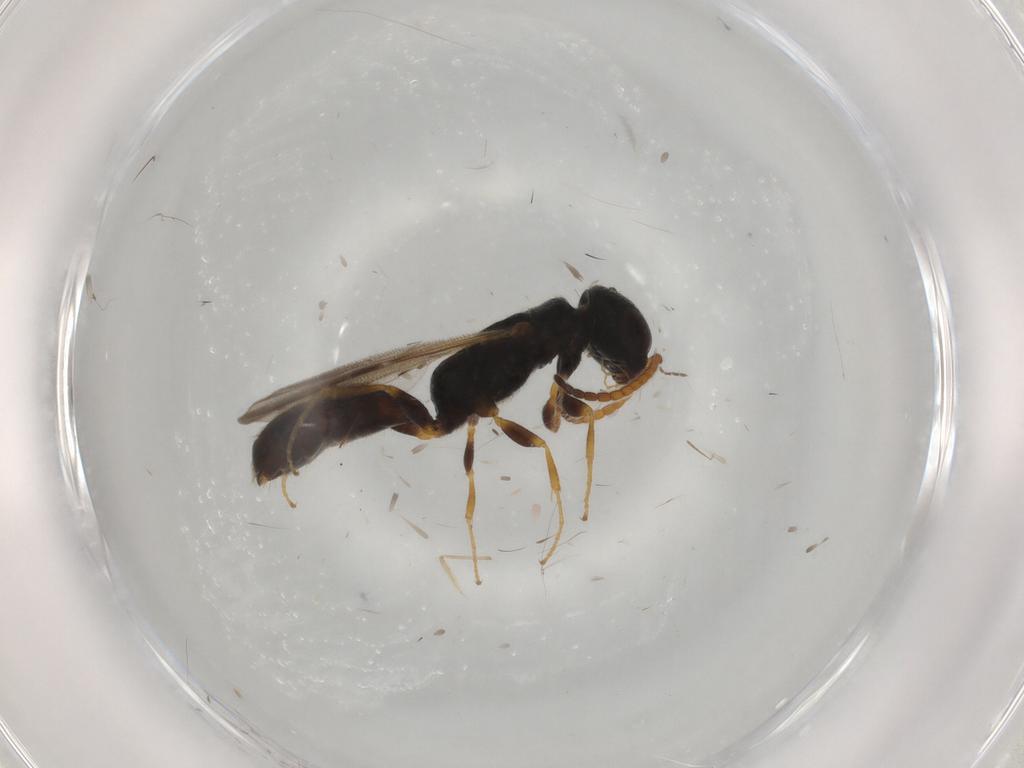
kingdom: Animalia
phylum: Arthropoda
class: Insecta
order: Hymenoptera
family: Bethylidae
